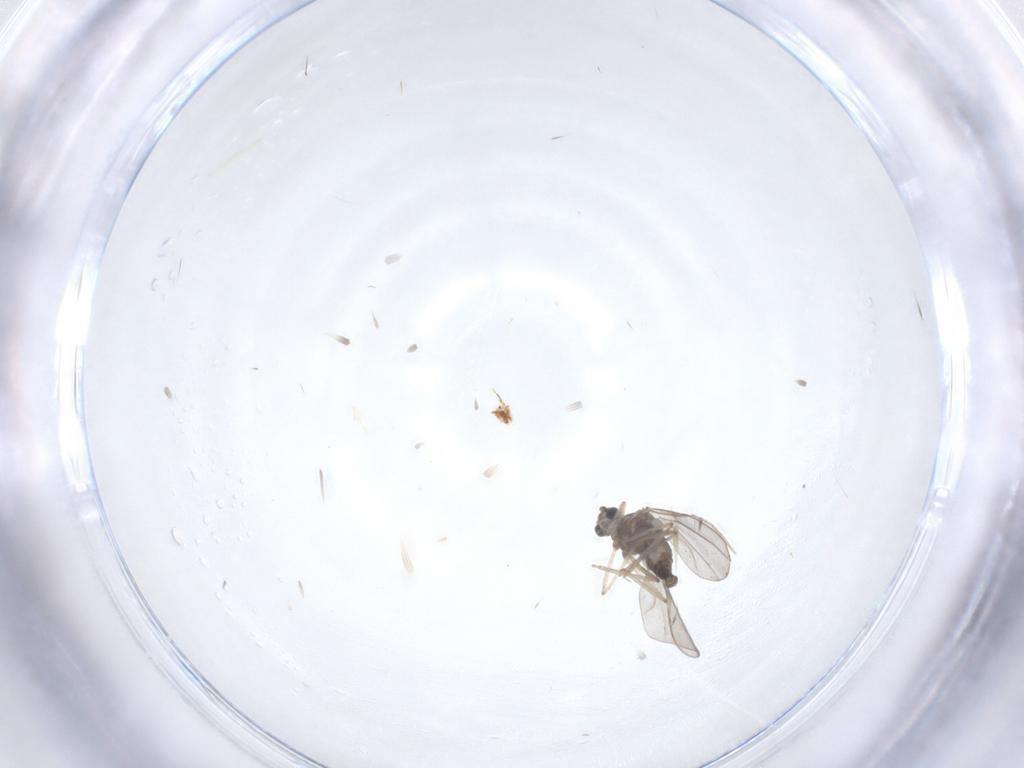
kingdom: Animalia
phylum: Arthropoda
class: Insecta
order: Diptera
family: Cecidomyiidae
